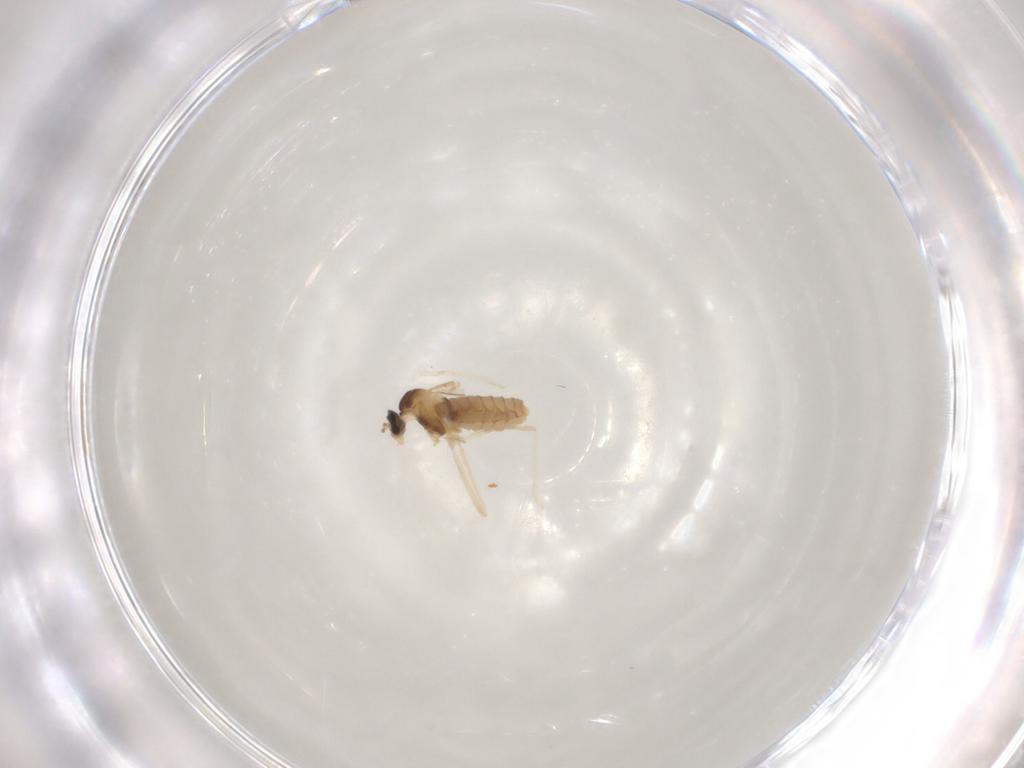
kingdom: Animalia
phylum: Arthropoda
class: Insecta
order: Diptera
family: Cecidomyiidae
